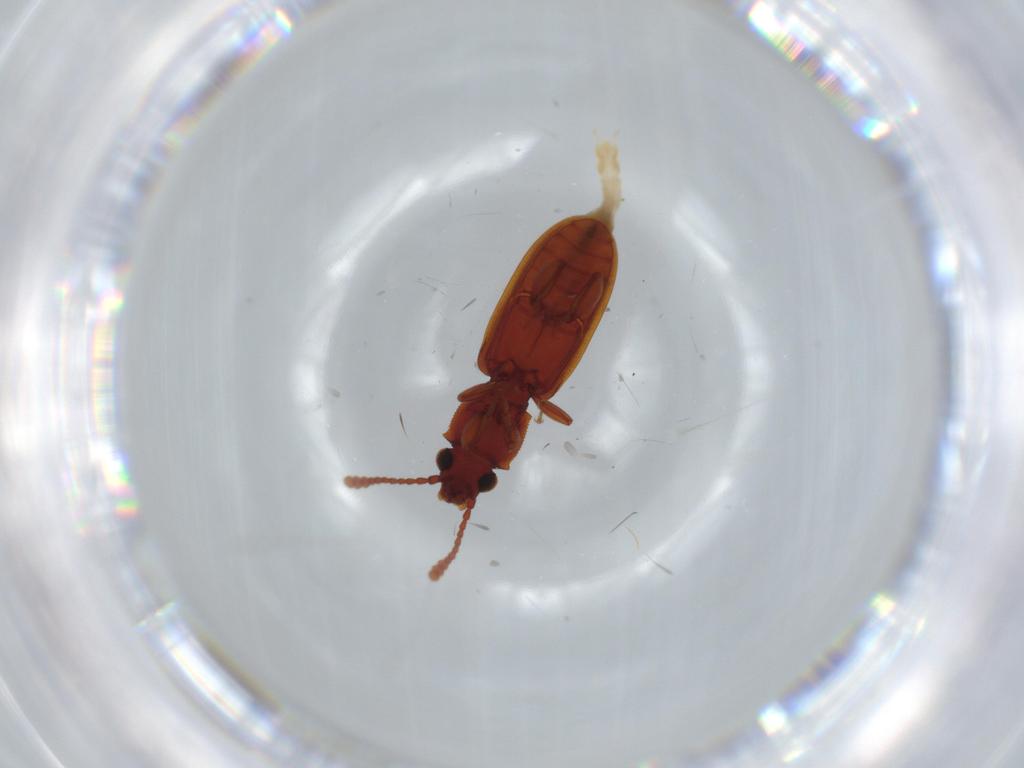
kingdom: Animalia
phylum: Arthropoda
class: Insecta
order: Coleoptera
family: Silvanidae
